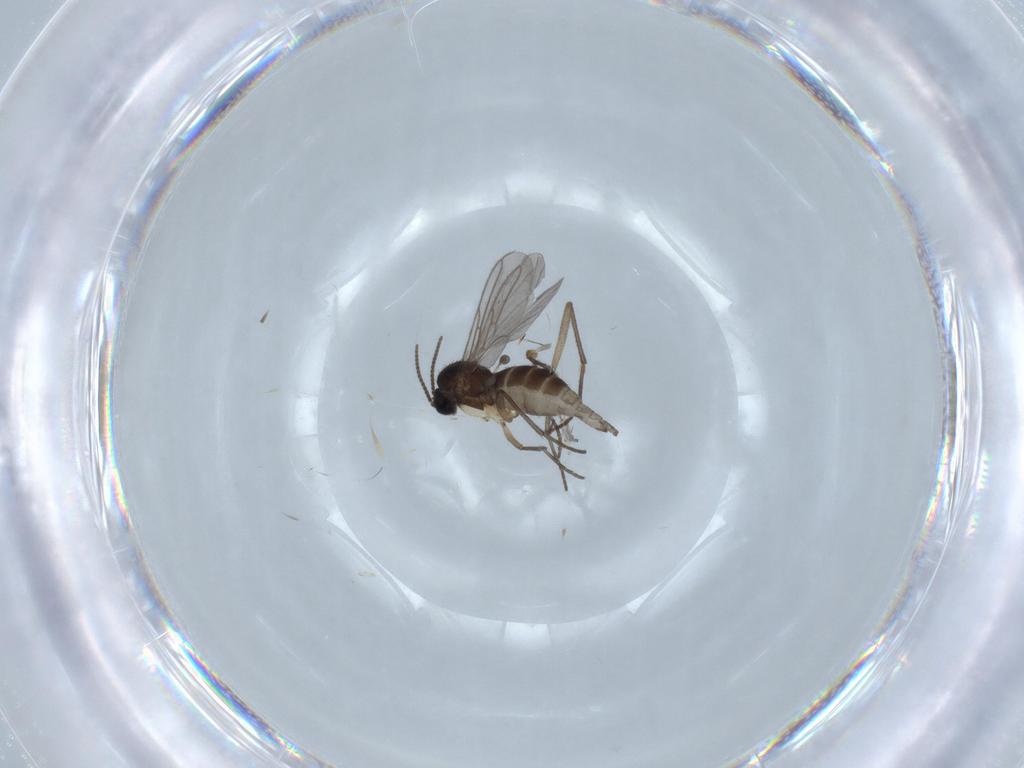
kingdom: Animalia
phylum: Arthropoda
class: Insecta
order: Diptera
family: Sciaridae
